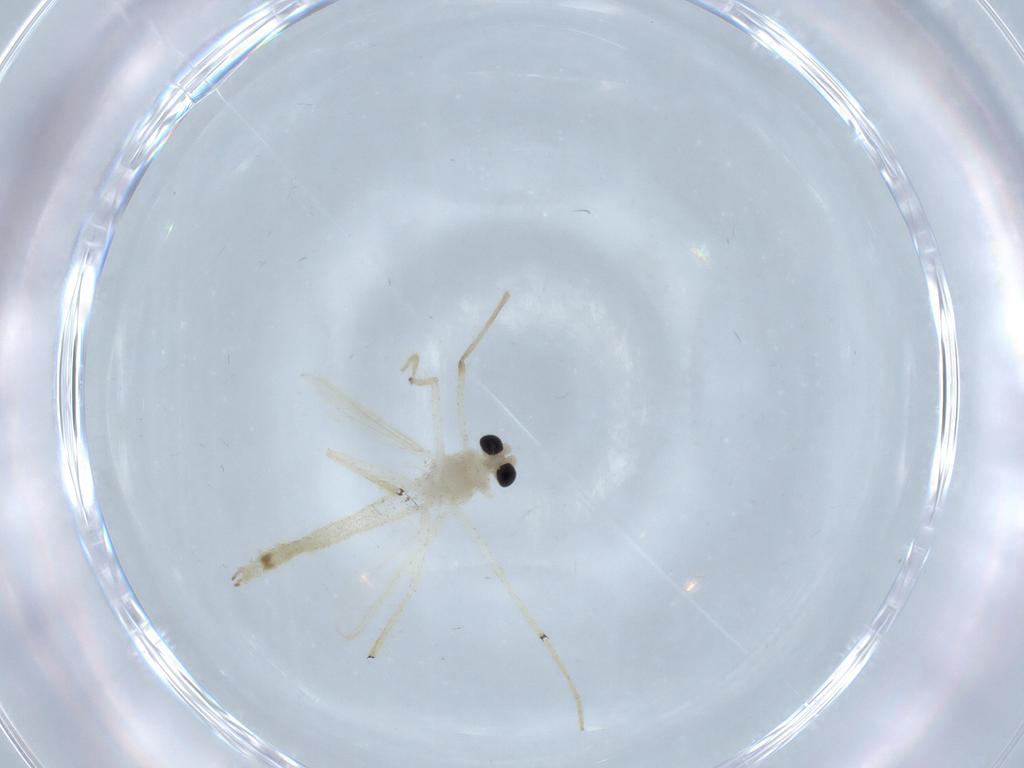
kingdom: Animalia
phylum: Arthropoda
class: Insecta
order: Diptera
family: Chironomidae
